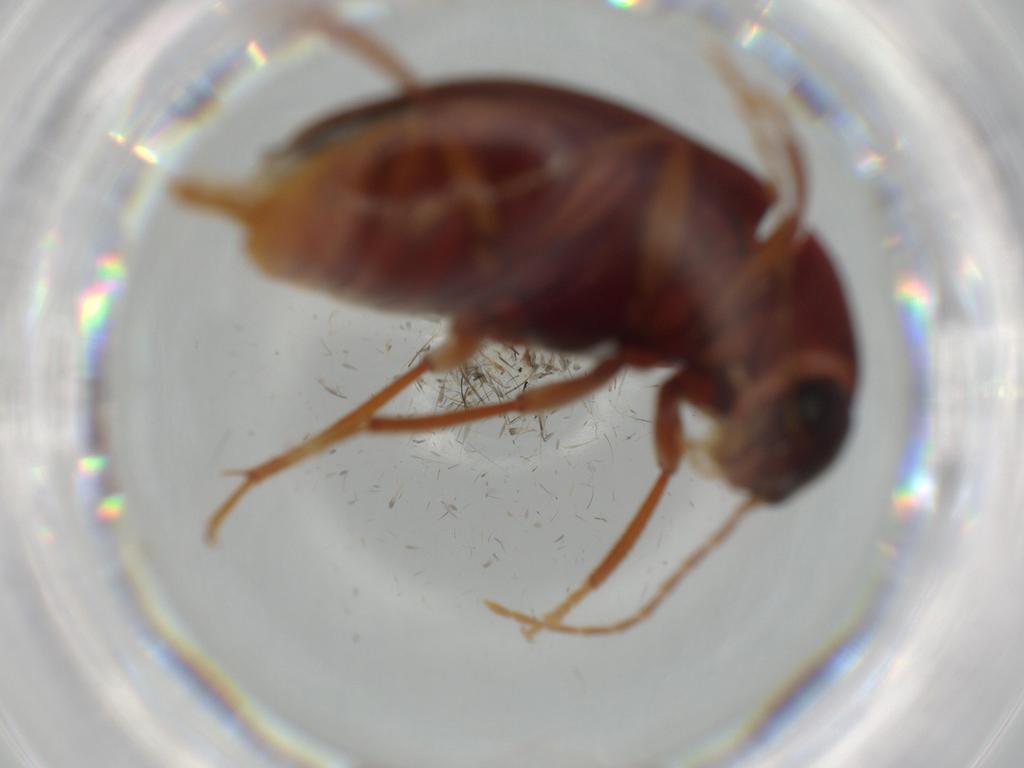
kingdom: Animalia
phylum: Arthropoda
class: Insecta
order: Coleoptera
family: Ptilodactylidae
